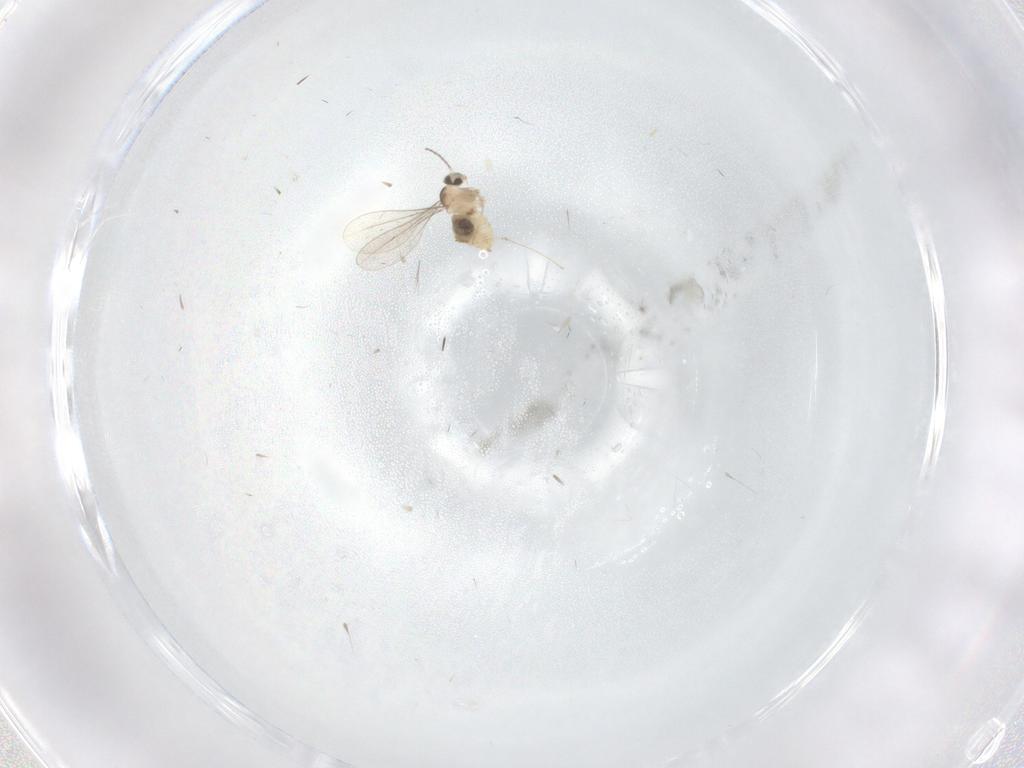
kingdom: Animalia
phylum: Arthropoda
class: Insecta
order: Diptera
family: Cecidomyiidae
